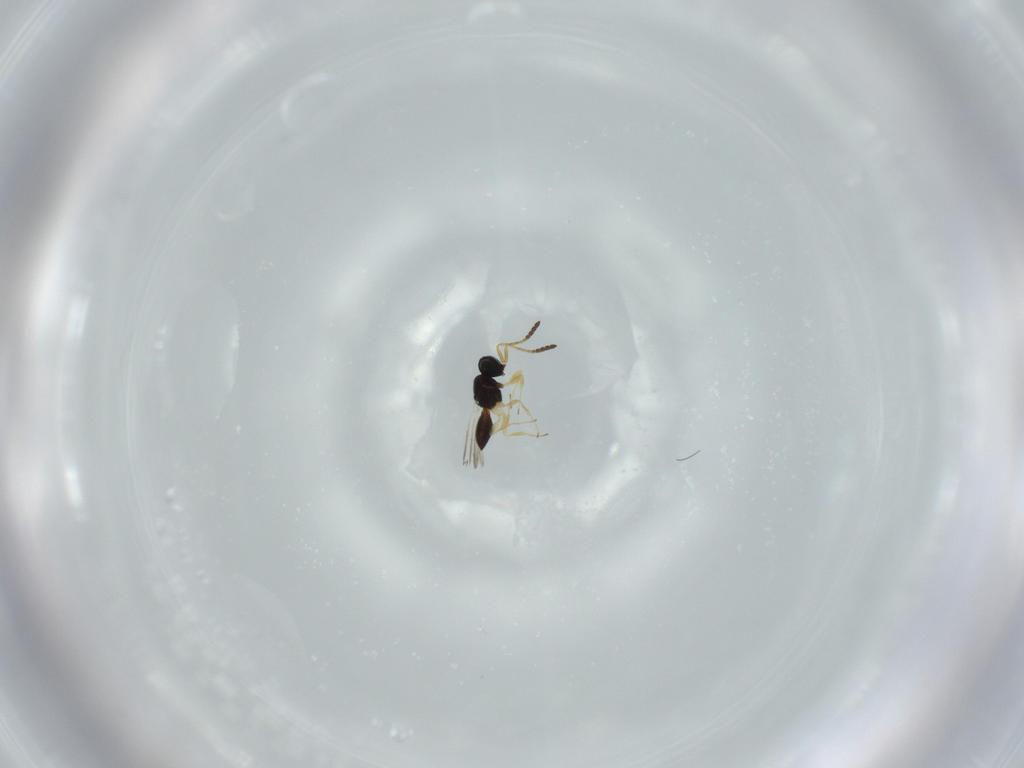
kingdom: Animalia
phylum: Arthropoda
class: Insecta
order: Hymenoptera
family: Scelionidae
